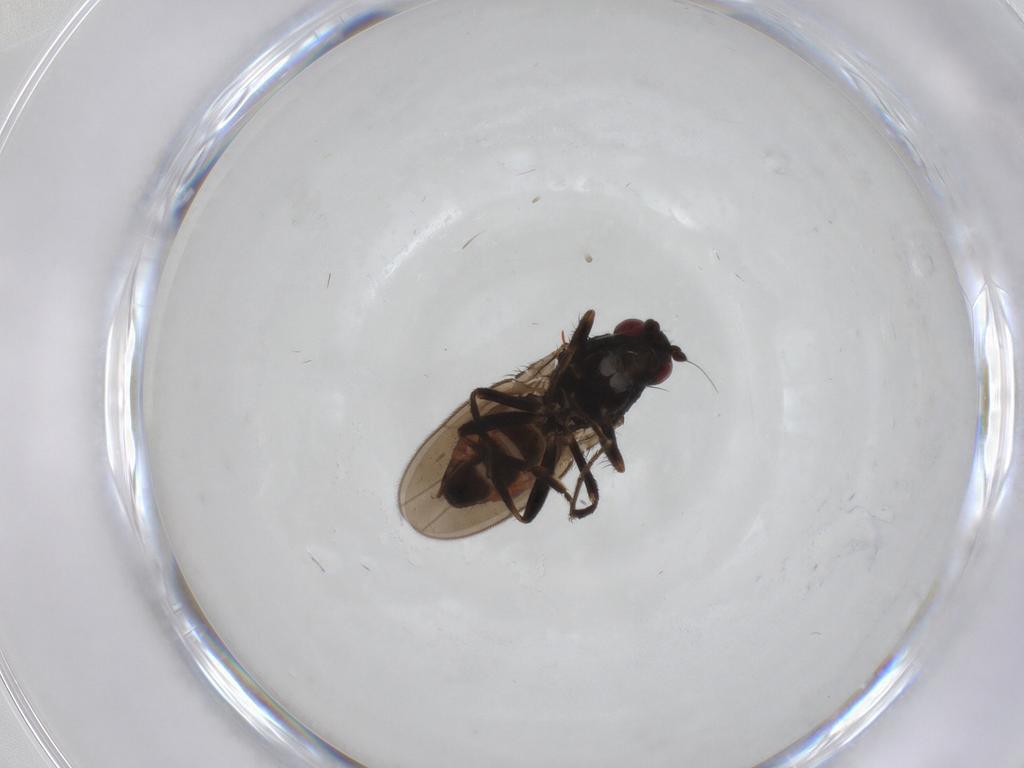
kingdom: Animalia
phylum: Arthropoda
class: Insecta
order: Diptera
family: Sphaeroceridae
